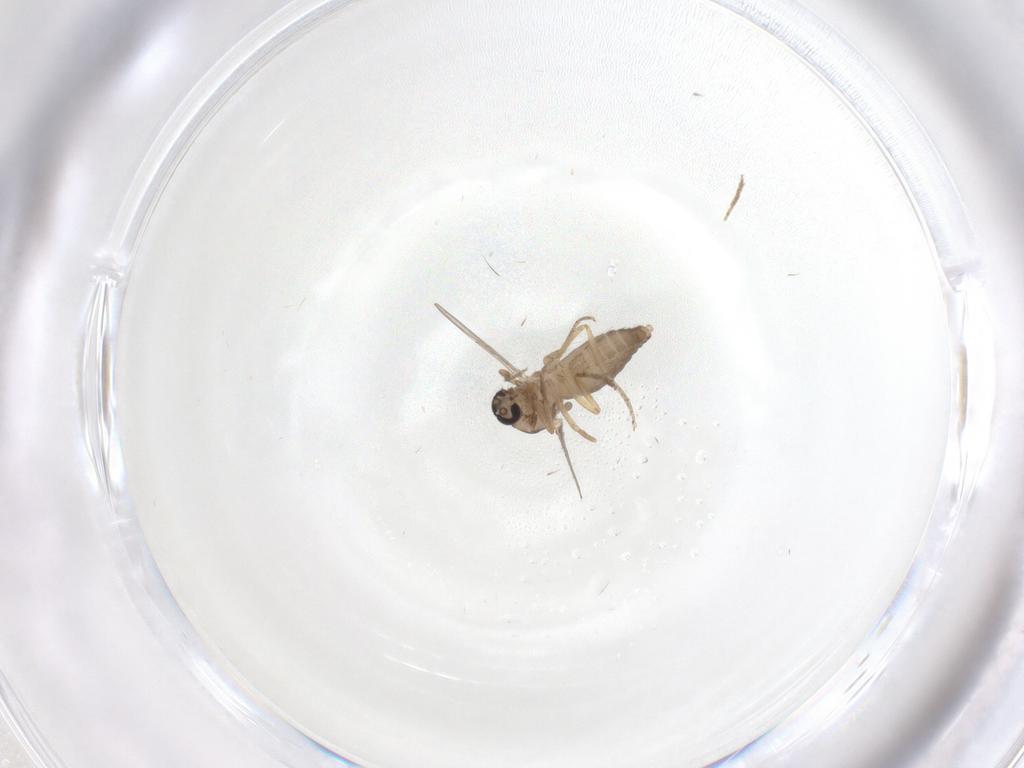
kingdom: Animalia
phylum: Arthropoda
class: Insecta
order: Diptera
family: Ceratopogonidae
